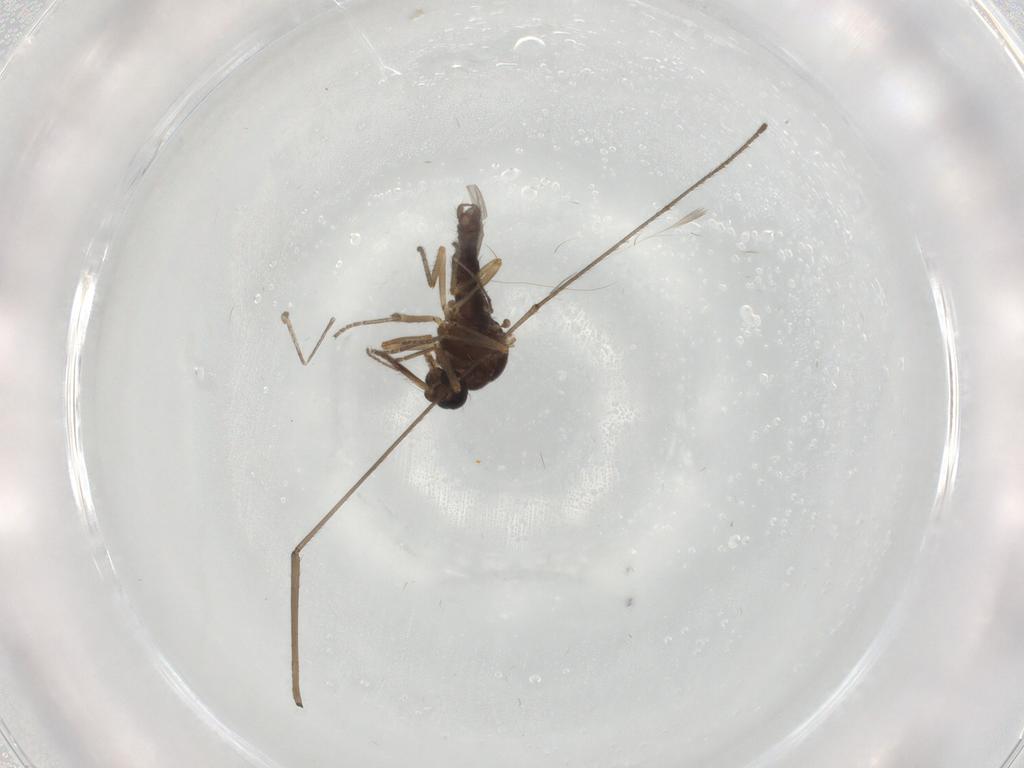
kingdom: Animalia
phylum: Arthropoda
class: Insecta
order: Diptera
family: Ceratopogonidae
